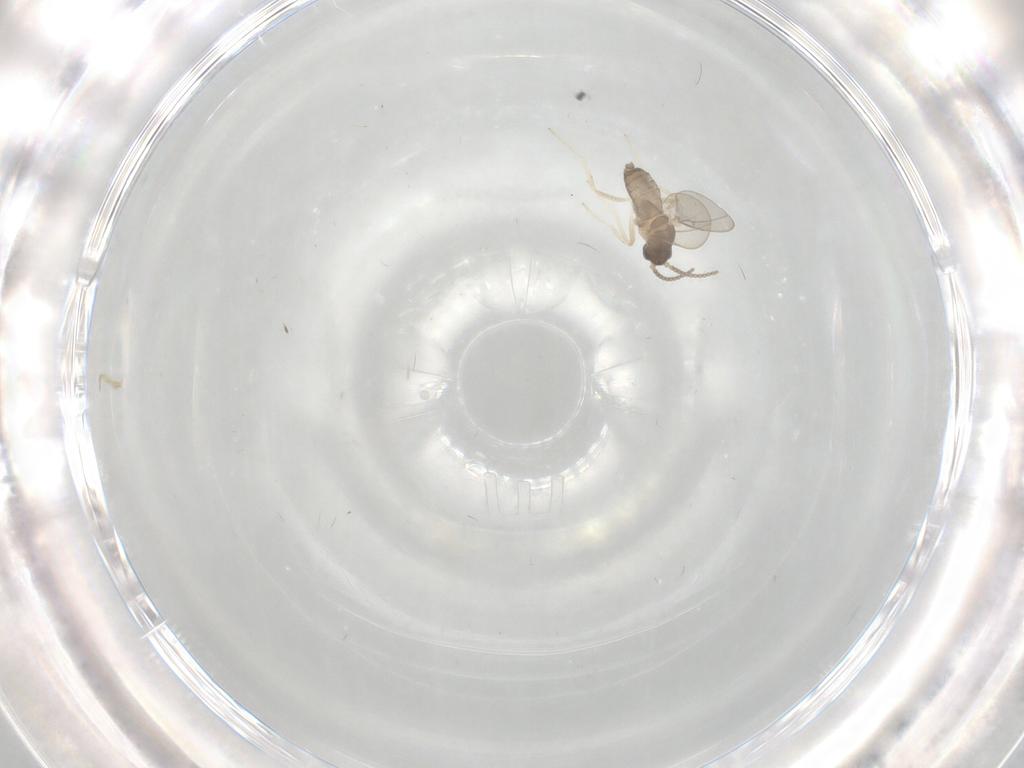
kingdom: Animalia
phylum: Arthropoda
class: Insecta
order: Diptera
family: Cecidomyiidae
